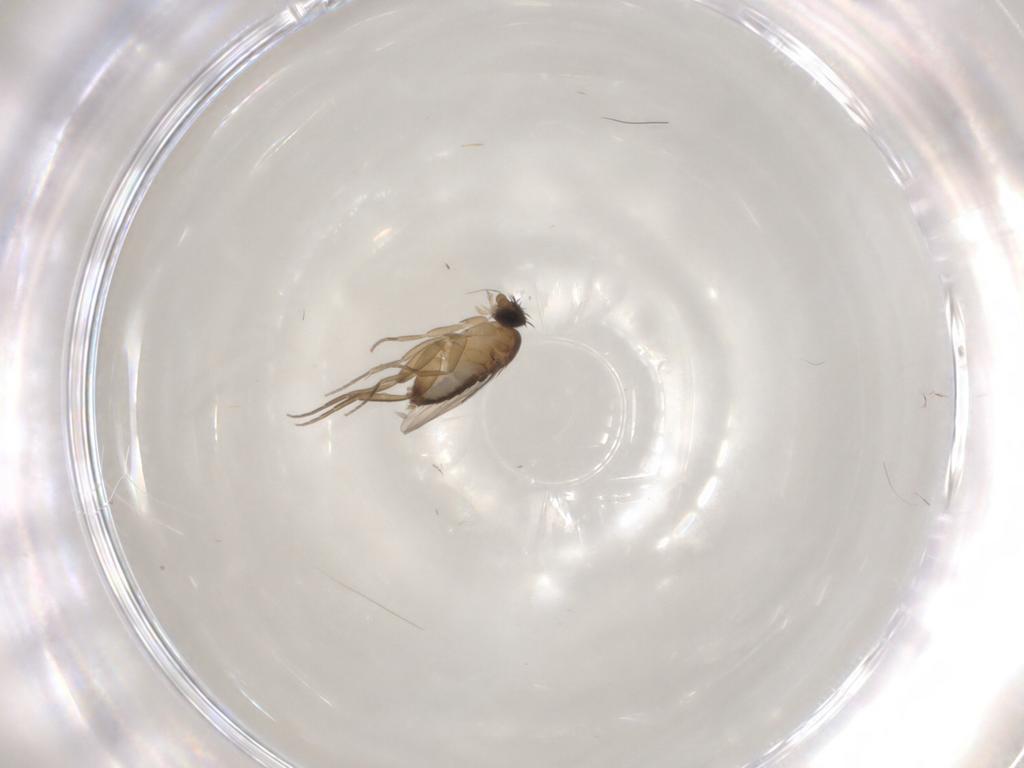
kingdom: Animalia
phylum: Arthropoda
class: Insecta
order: Diptera
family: Phoridae
